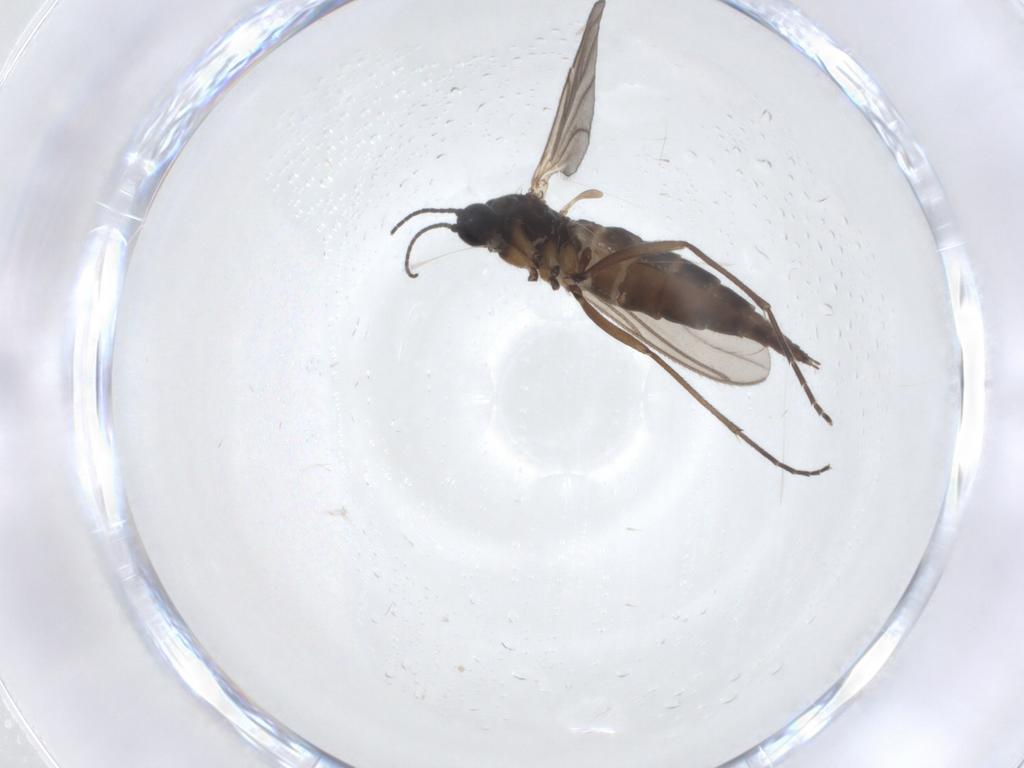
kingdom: Animalia
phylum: Arthropoda
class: Insecta
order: Diptera
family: Sciaridae
